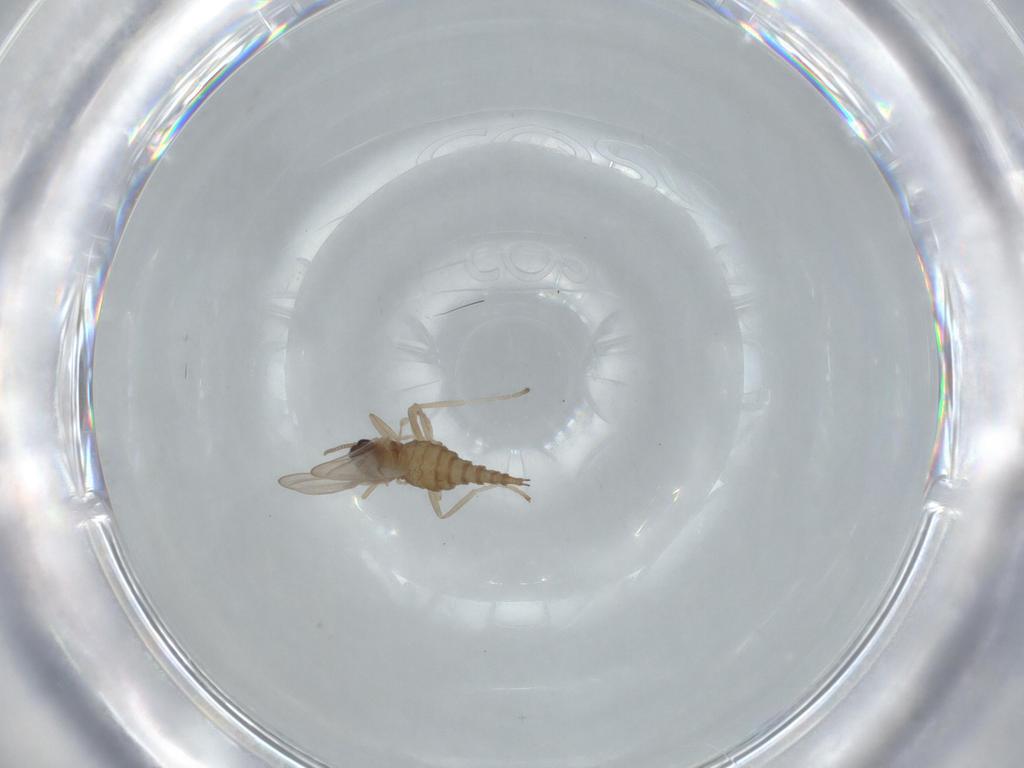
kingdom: Animalia
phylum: Arthropoda
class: Insecta
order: Diptera
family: Cecidomyiidae
